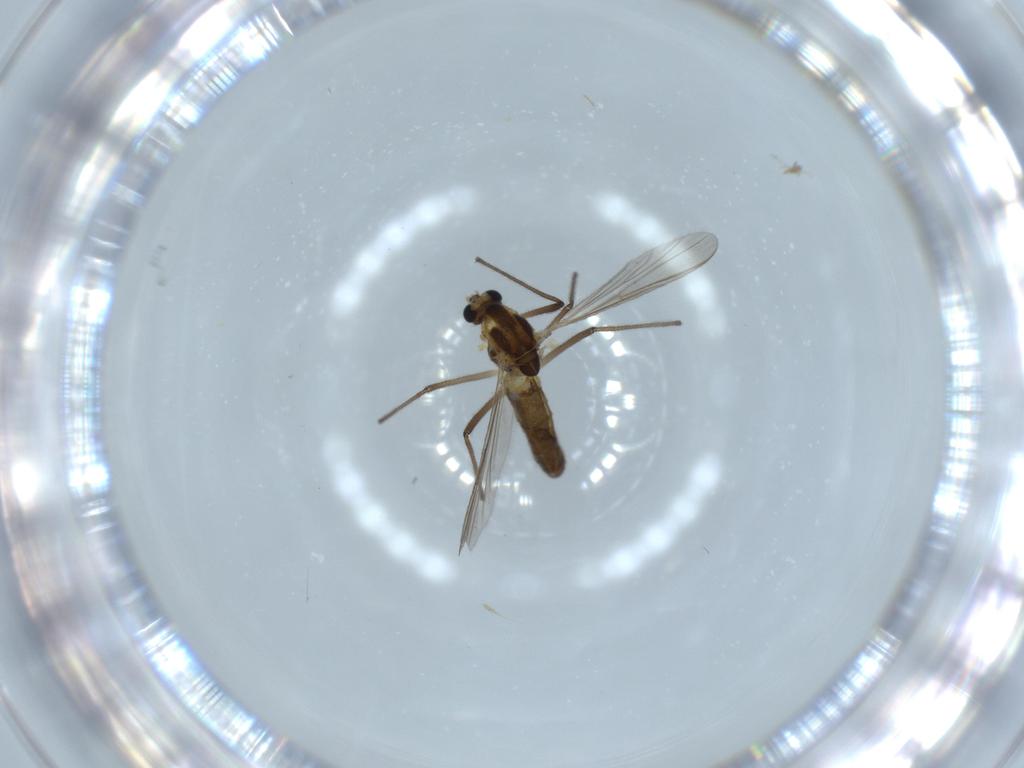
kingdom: Animalia
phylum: Arthropoda
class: Insecta
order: Diptera
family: Chironomidae
